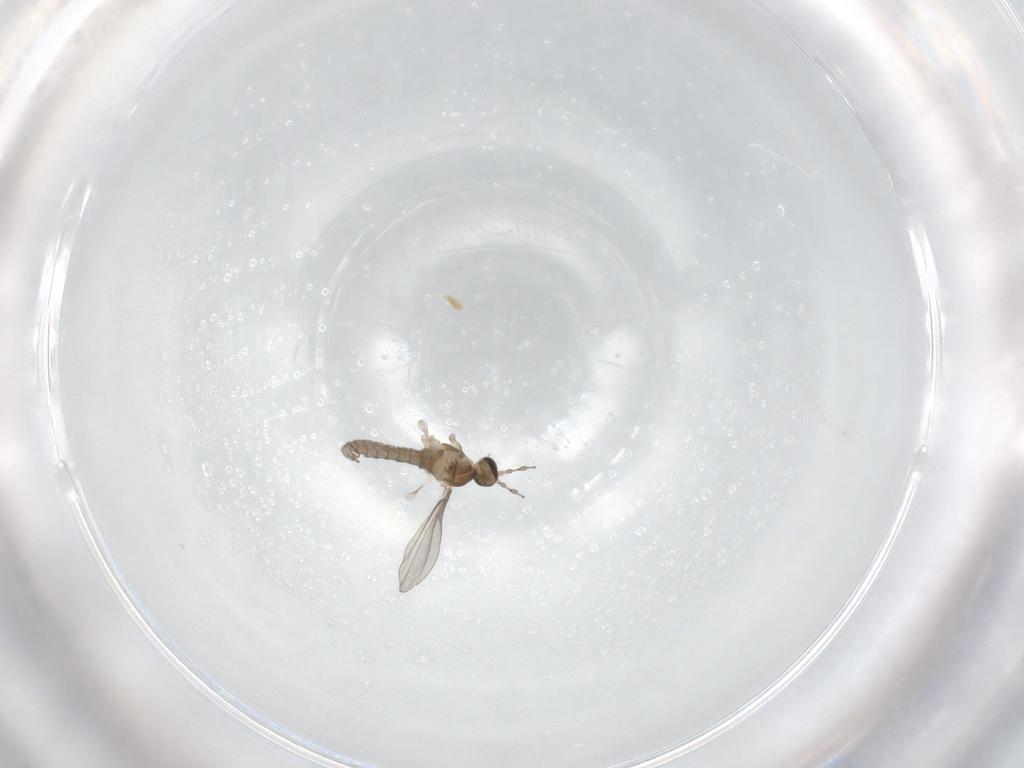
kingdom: Animalia
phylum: Arthropoda
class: Insecta
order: Diptera
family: Cecidomyiidae
